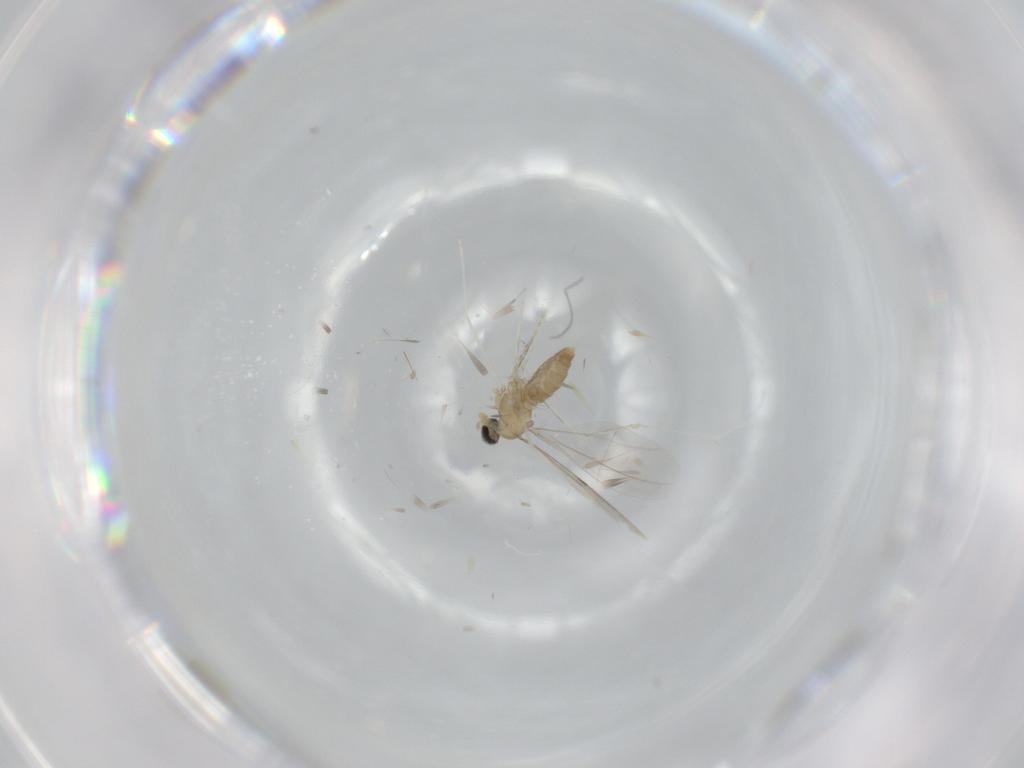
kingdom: Animalia
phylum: Arthropoda
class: Insecta
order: Diptera
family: Cecidomyiidae
